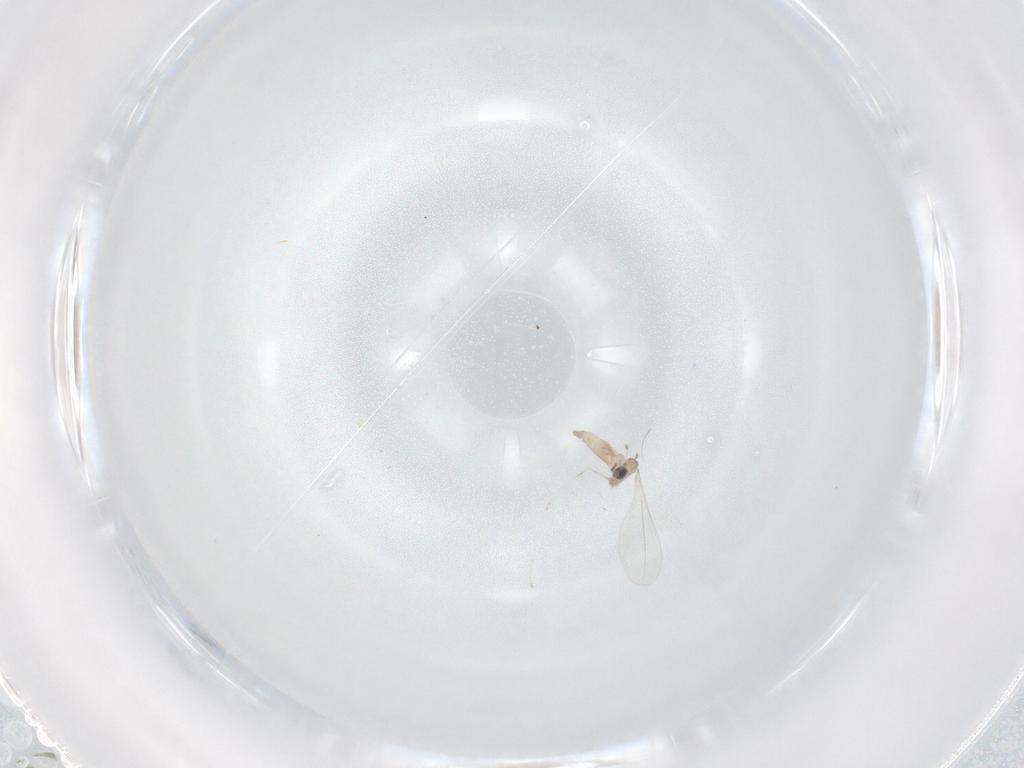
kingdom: Animalia
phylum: Arthropoda
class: Insecta
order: Diptera
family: Cecidomyiidae
